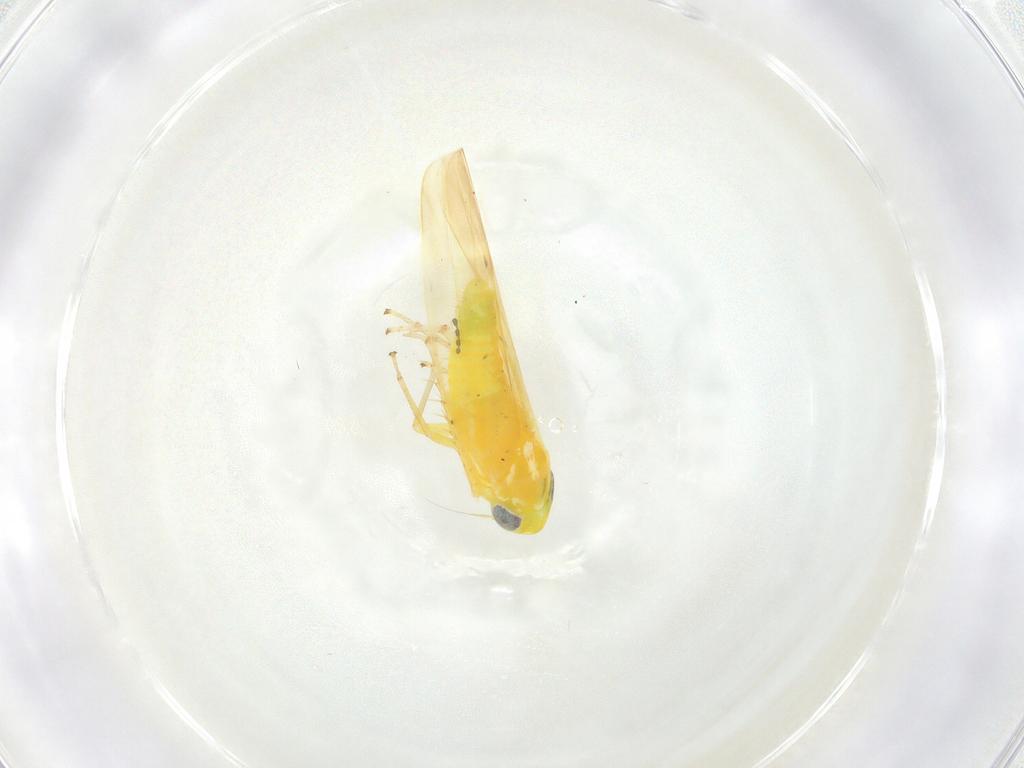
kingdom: Animalia
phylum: Arthropoda
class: Insecta
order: Hemiptera
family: Cicadellidae
